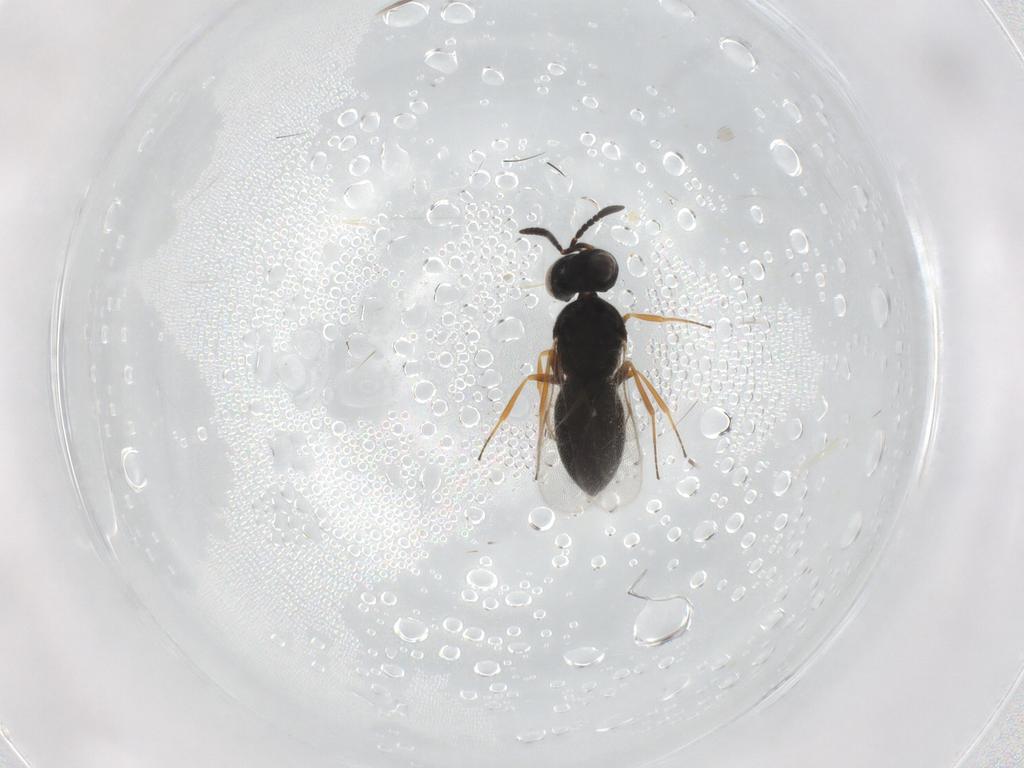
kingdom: Animalia
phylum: Arthropoda
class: Insecta
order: Hymenoptera
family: Scelionidae
